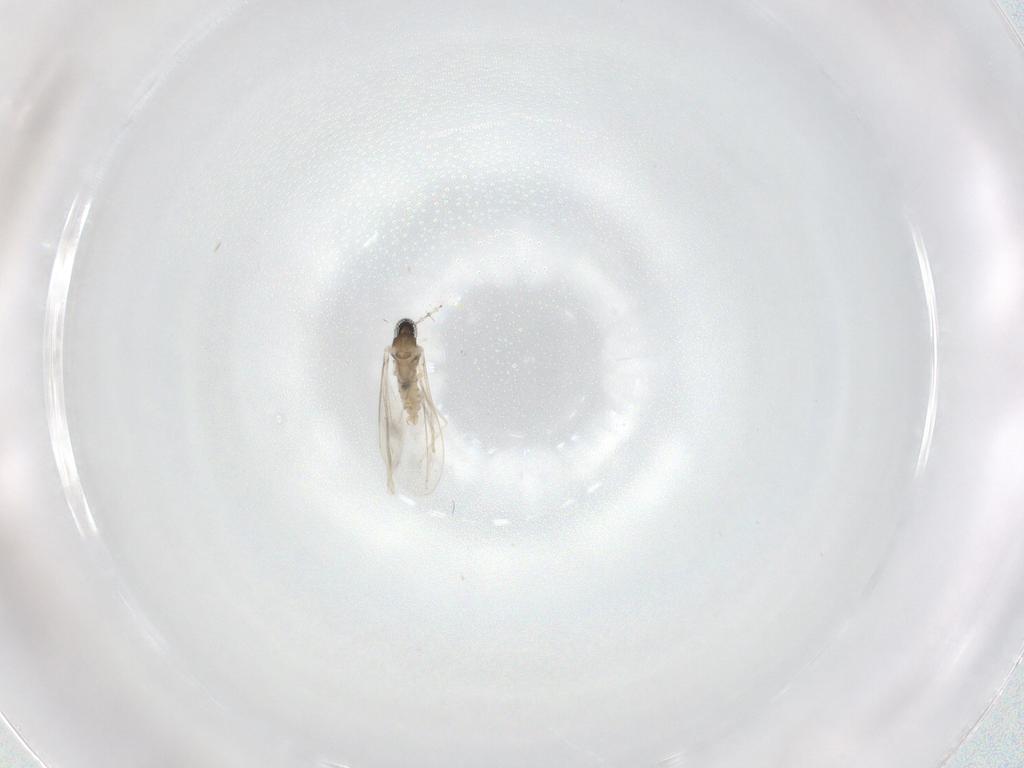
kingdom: Animalia
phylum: Arthropoda
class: Insecta
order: Diptera
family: Cecidomyiidae
